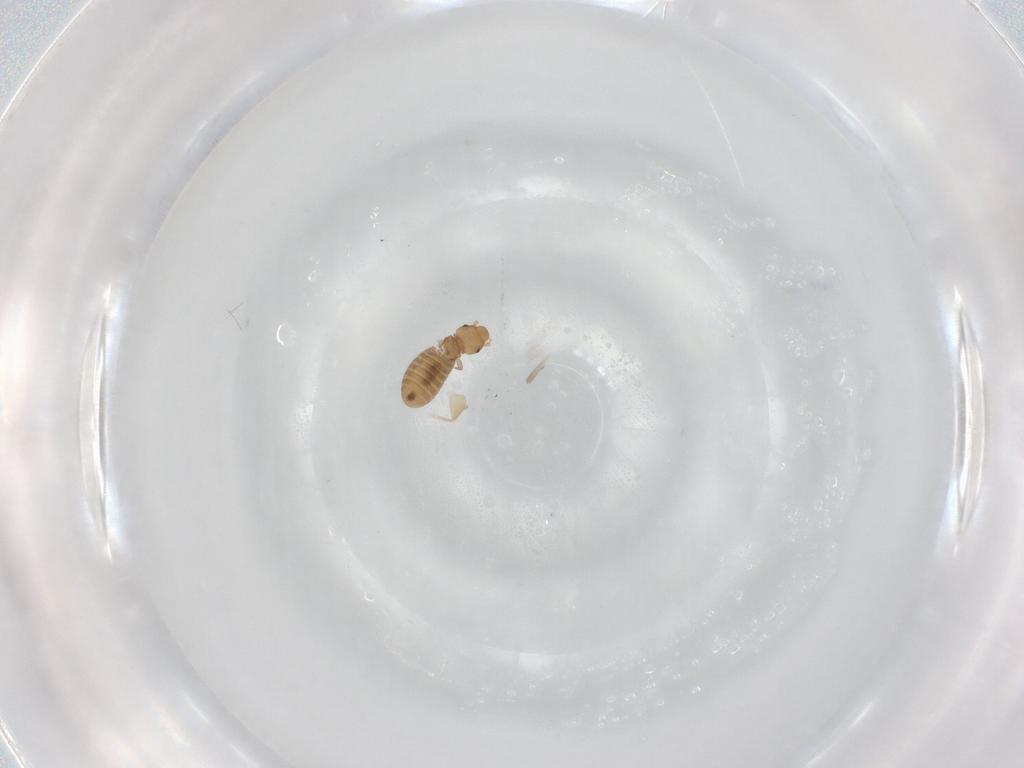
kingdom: Animalia
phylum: Arthropoda
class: Insecta
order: Psocodea
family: Liposcelididae
